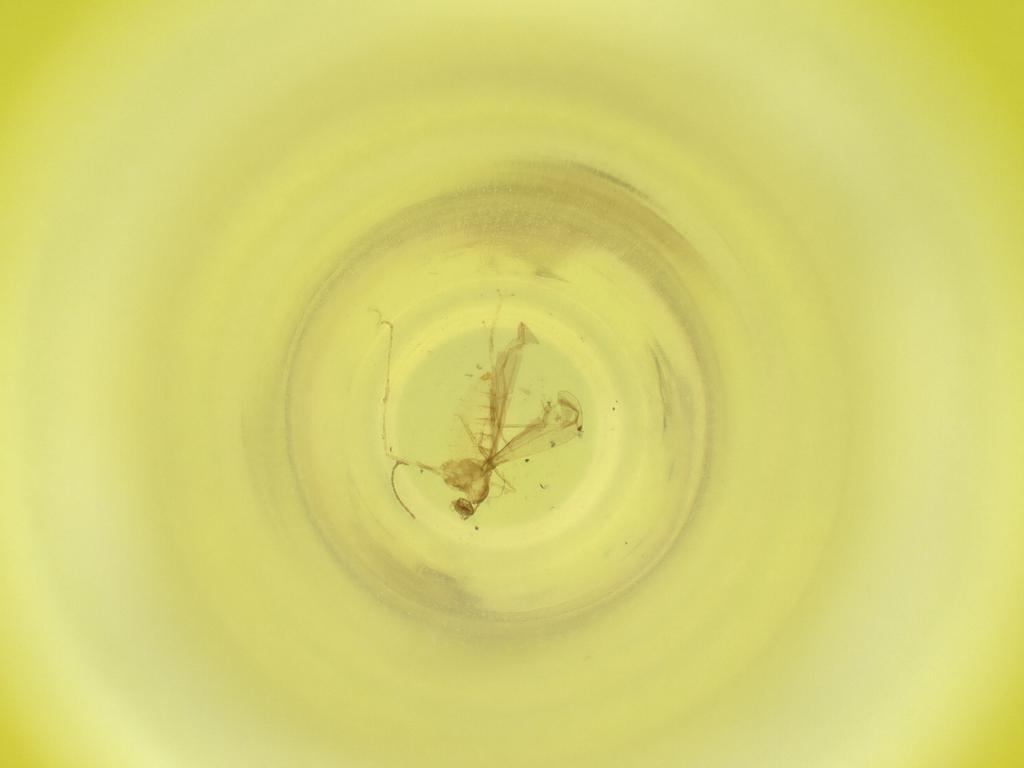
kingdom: Animalia
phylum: Arthropoda
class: Insecta
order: Diptera
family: Cecidomyiidae
